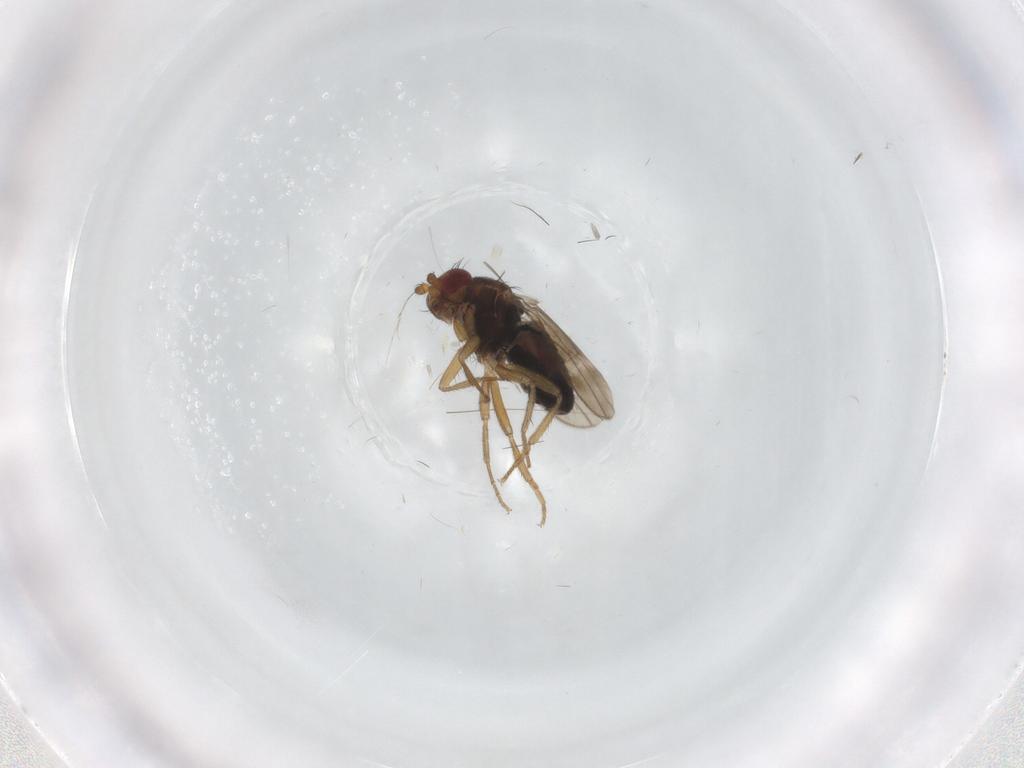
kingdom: Animalia
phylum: Arthropoda
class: Insecta
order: Diptera
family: Sphaeroceridae
